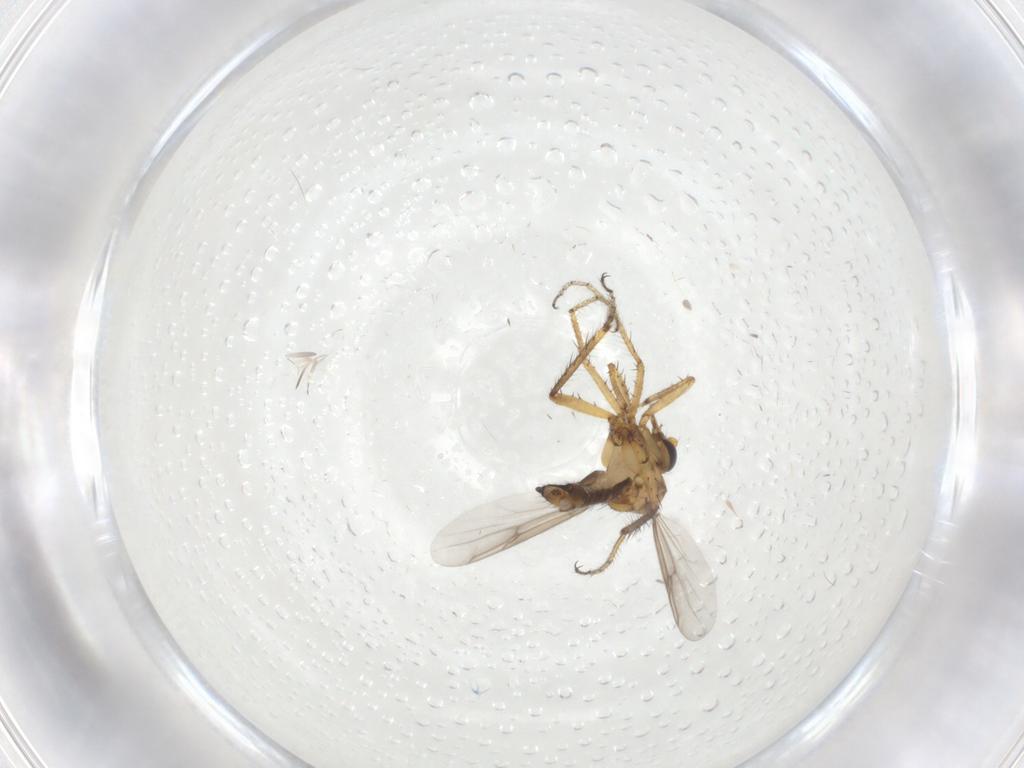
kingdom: Animalia
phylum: Arthropoda
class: Insecta
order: Diptera
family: Ceratopogonidae
